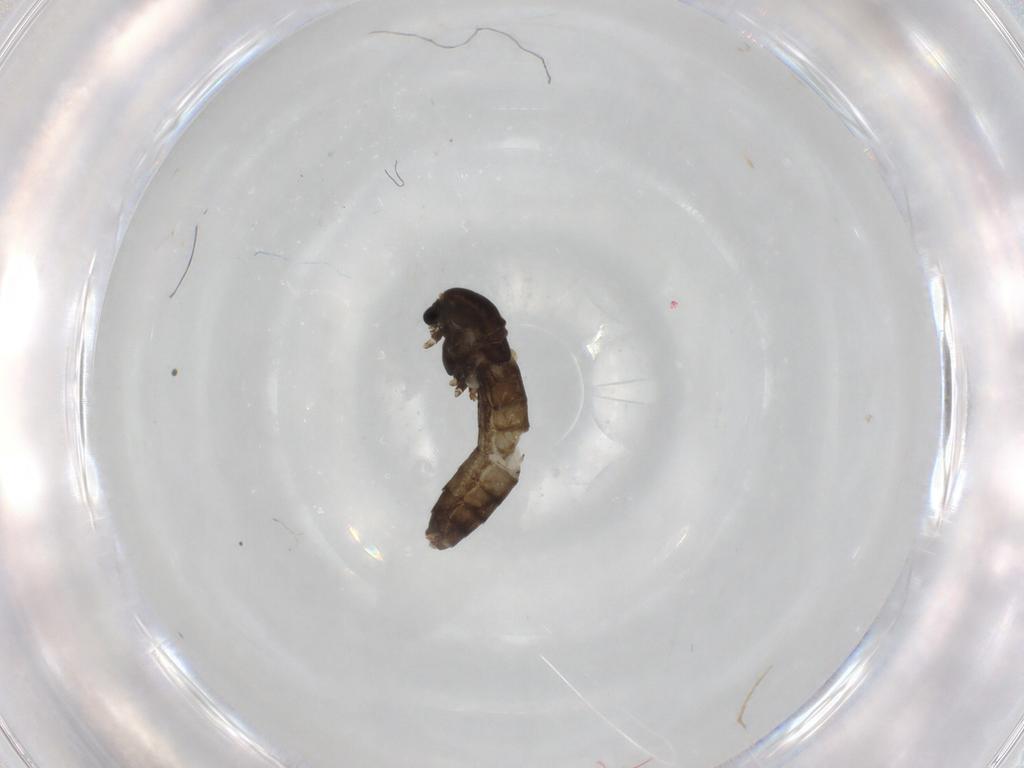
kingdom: Animalia
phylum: Arthropoda
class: Insecta
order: Diptera
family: Chironomidae
